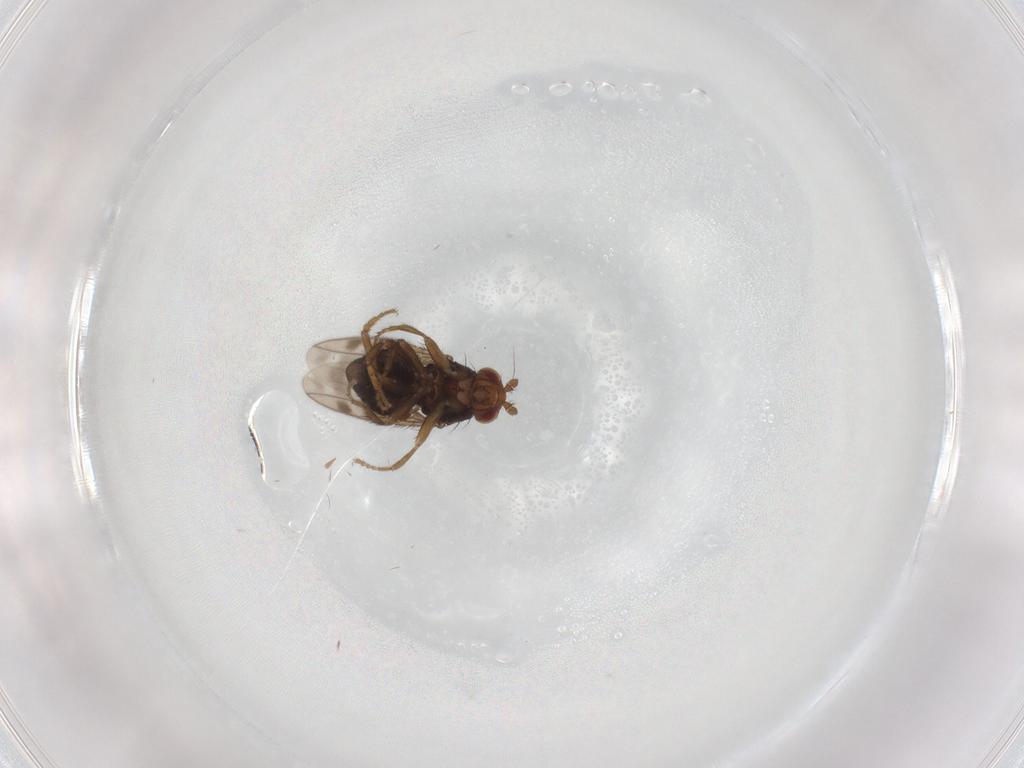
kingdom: Animalia
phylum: Arthropoda
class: Insecta
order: Diptera
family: Sphaeroceridae
